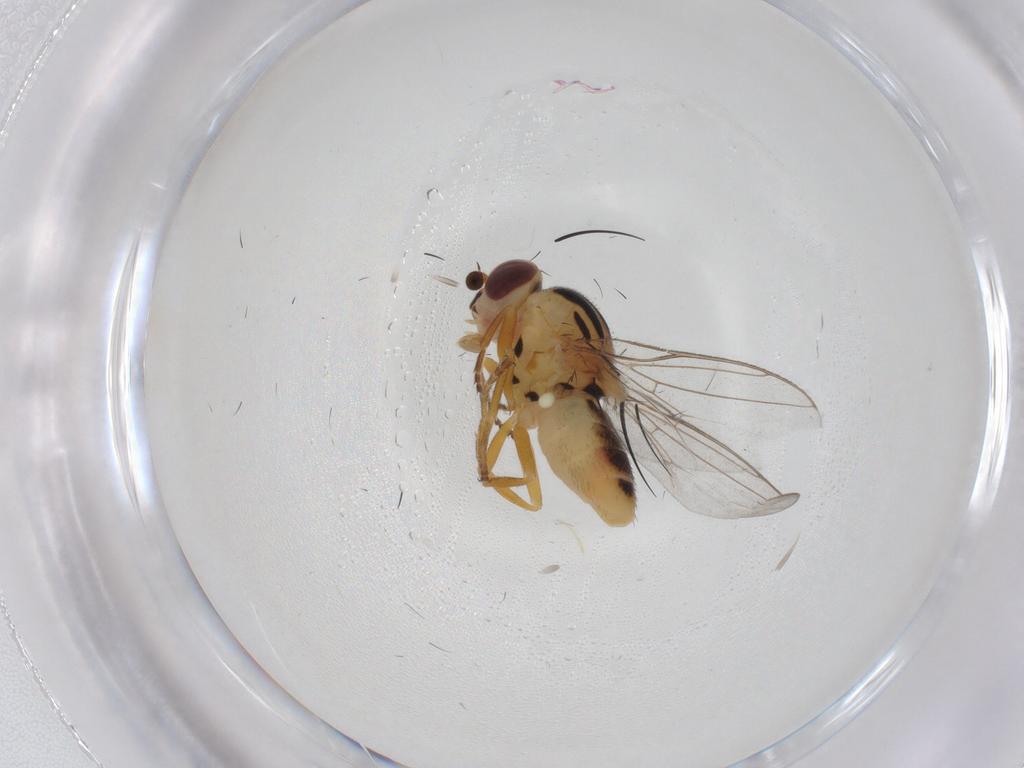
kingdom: Animalia
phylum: Arthropoda
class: Insecta
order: Diptera
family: Chloropidae
